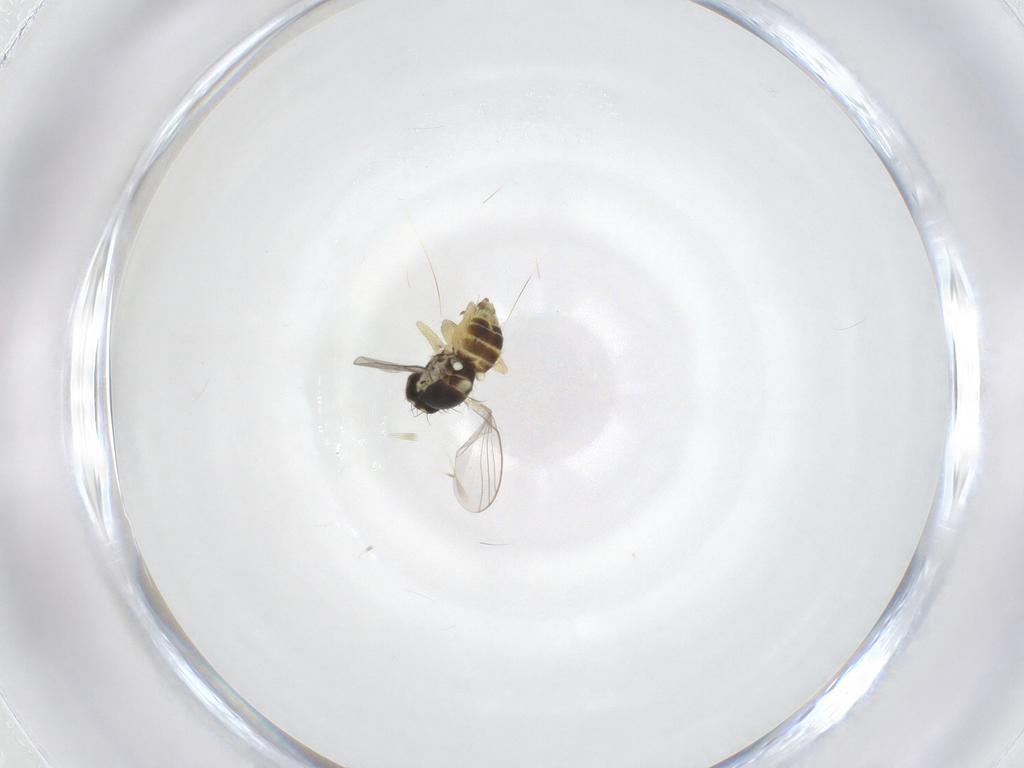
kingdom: Animalia
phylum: Arthropoda
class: Insecta
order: Diptera
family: Agromyzidae
